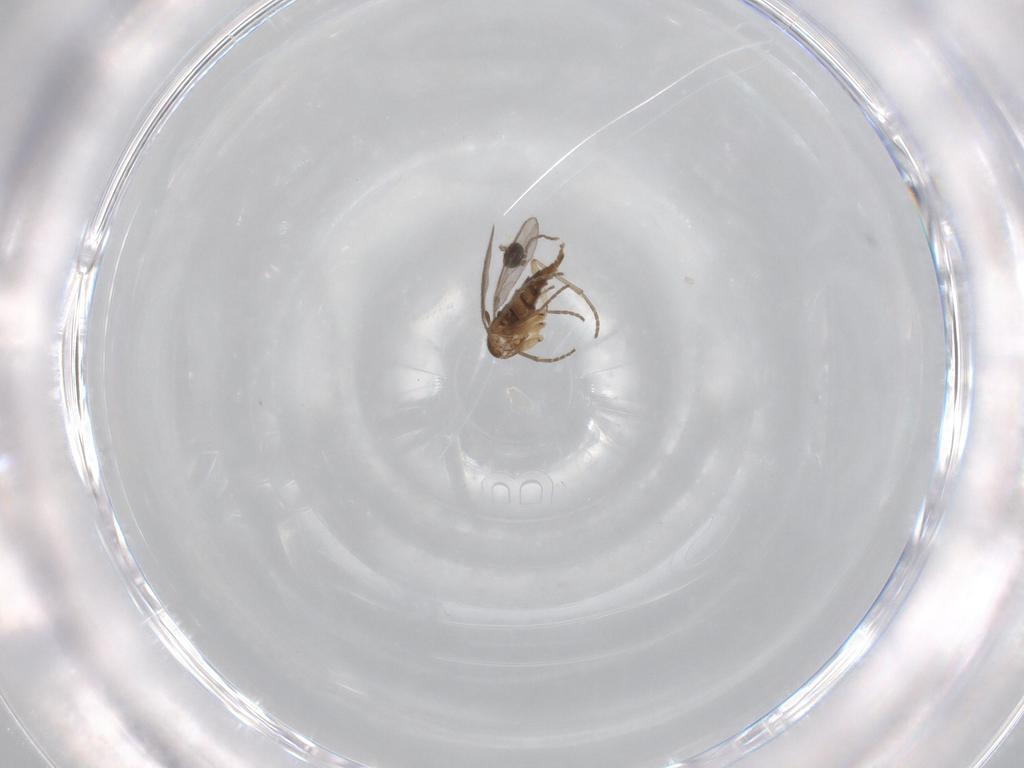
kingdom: Animalia
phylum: Arthropoda
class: Insecta
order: Diptera
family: Sciaridae
